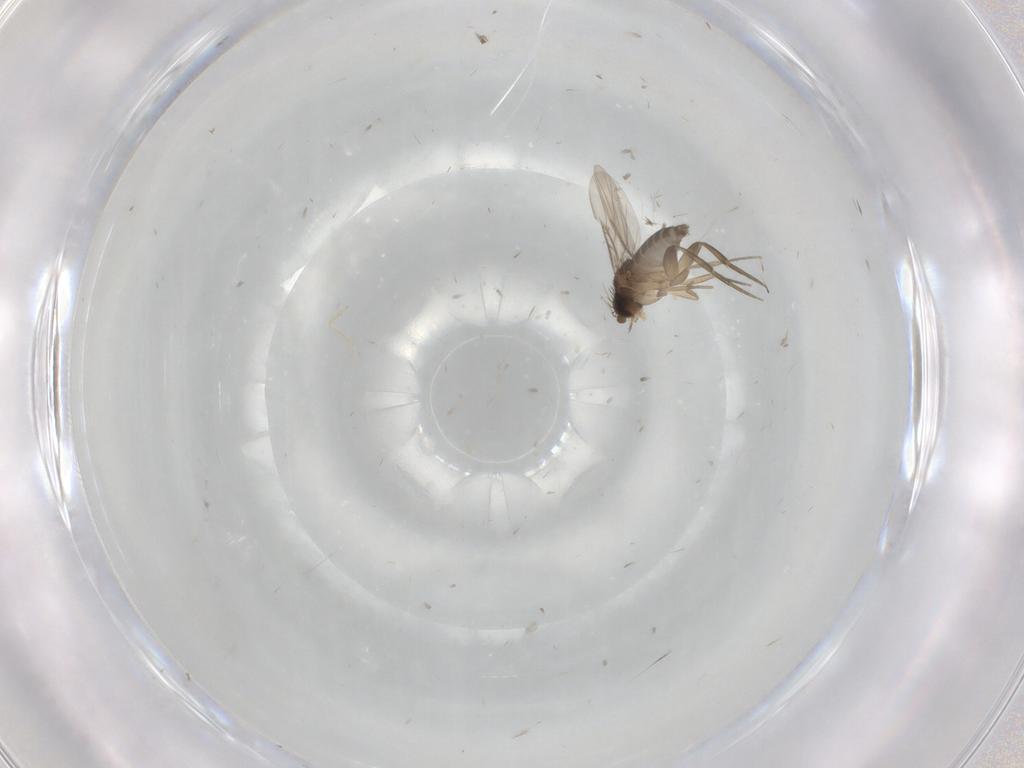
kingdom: Animalia
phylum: Arthropoda
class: Insecta
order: Diptera
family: Phoridae
